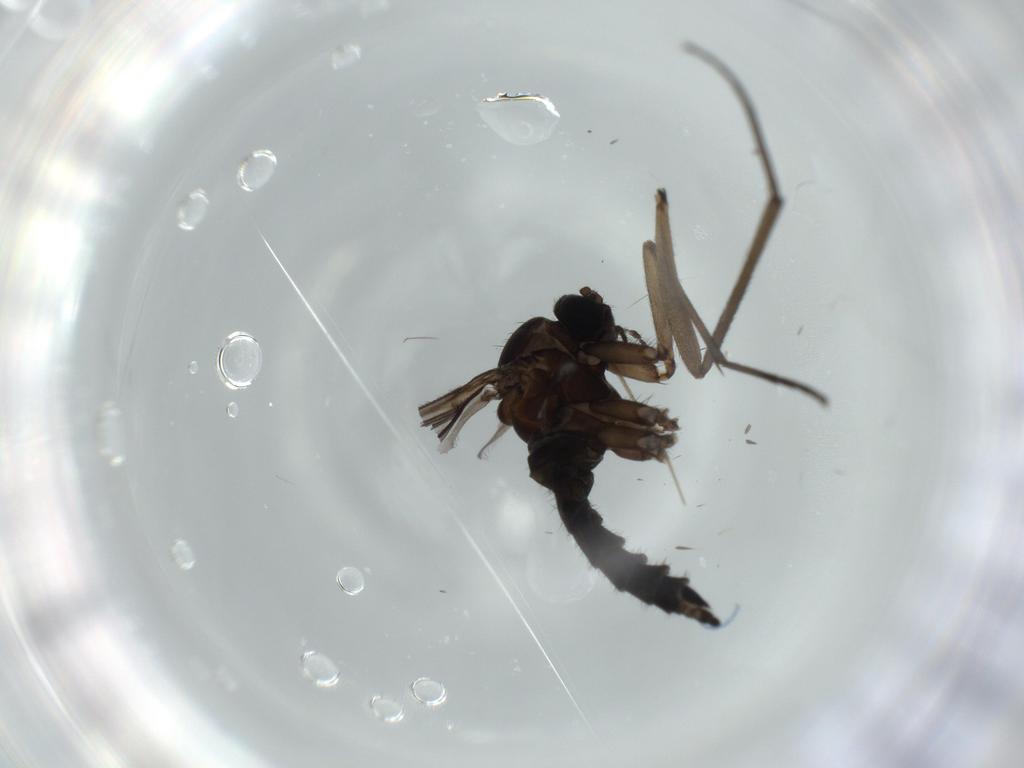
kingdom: Animalia
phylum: Arthropoda
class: Insecta
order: Diptera
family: Sciaridae
